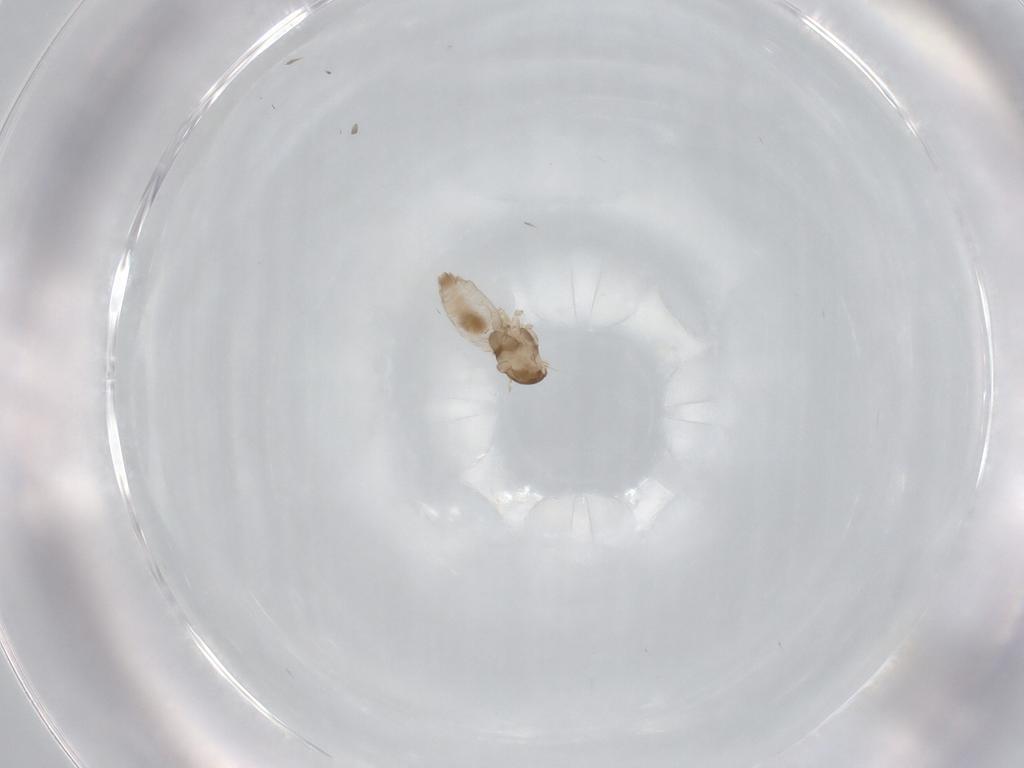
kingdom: Animalia
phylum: Arthropoda
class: Insecta
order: Diptera
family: Cecidomyiidae
